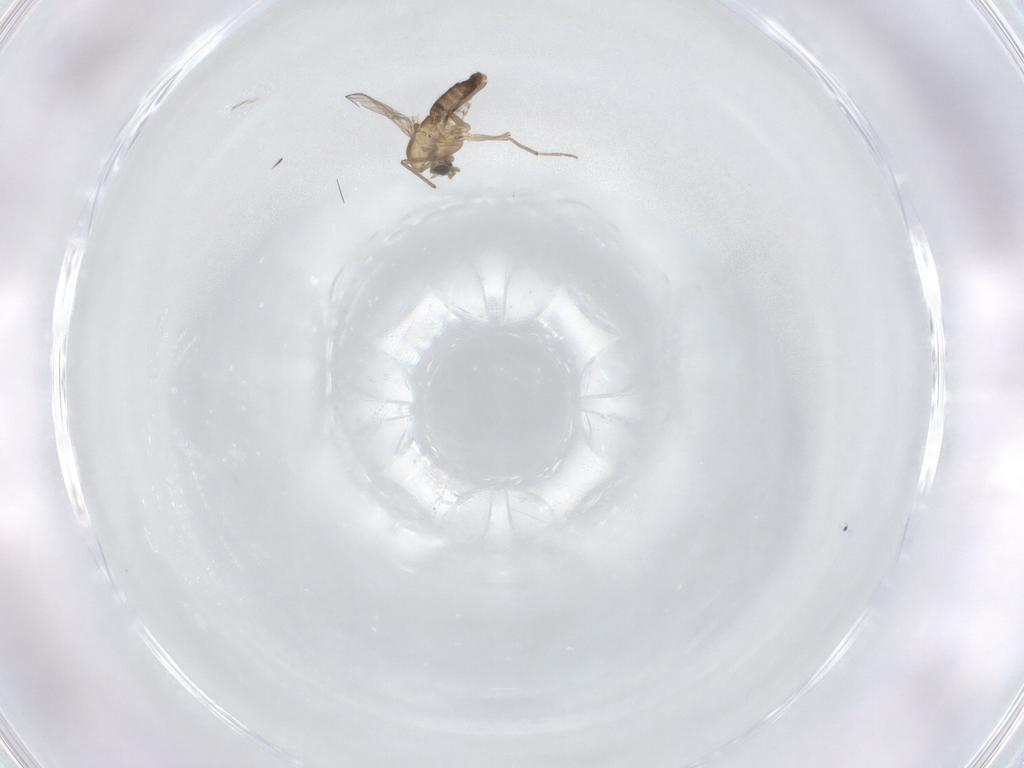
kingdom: Animalia
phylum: Arthropoda
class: Insecta
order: Diptera
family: Chironomidae
